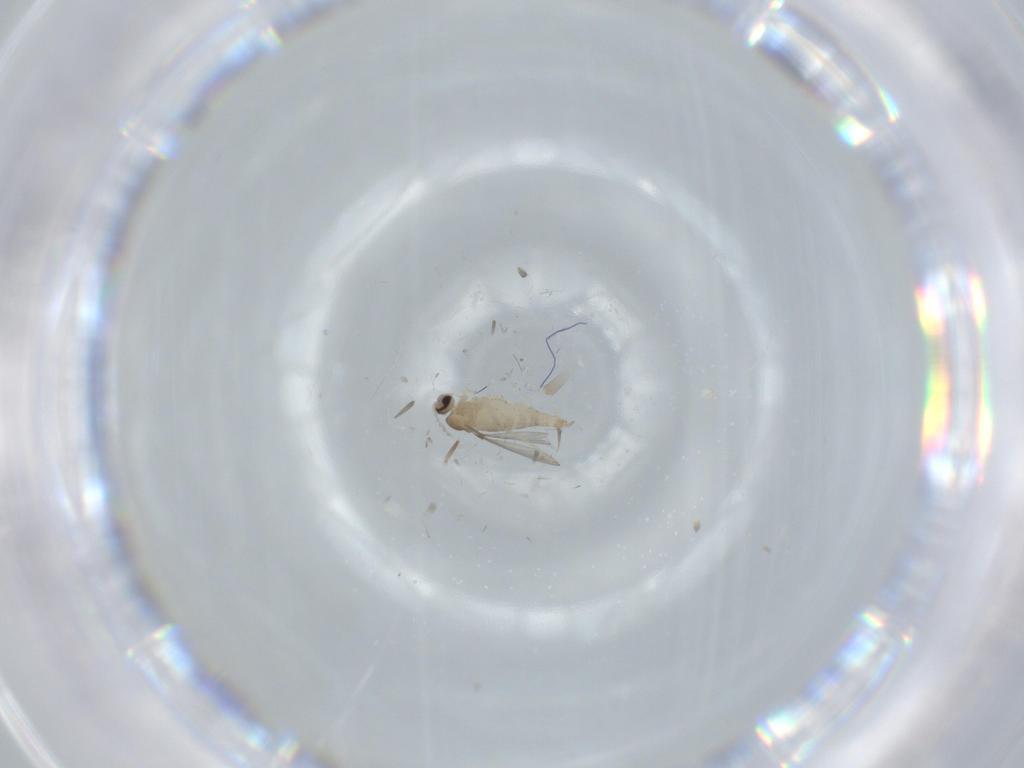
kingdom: Animalia
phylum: Arthropoda
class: Insecta
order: Diptera
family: Cecidomyiidae
